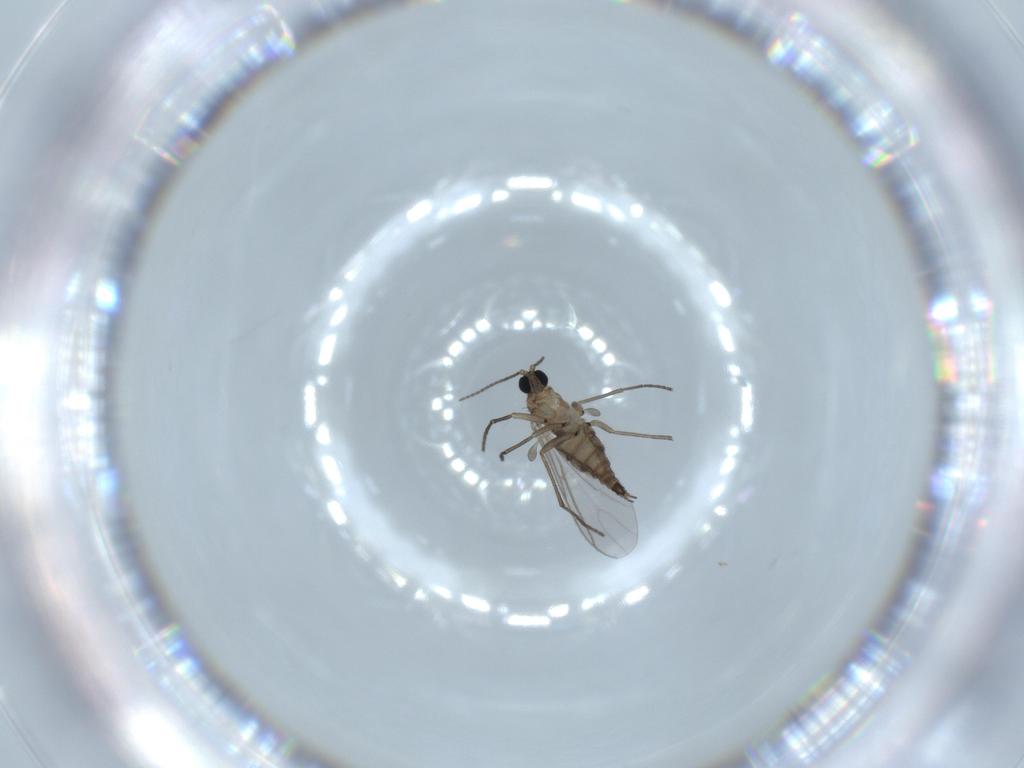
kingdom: Animalia
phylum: Arthropoda
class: Insecta
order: Diptera
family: Sciaridae
